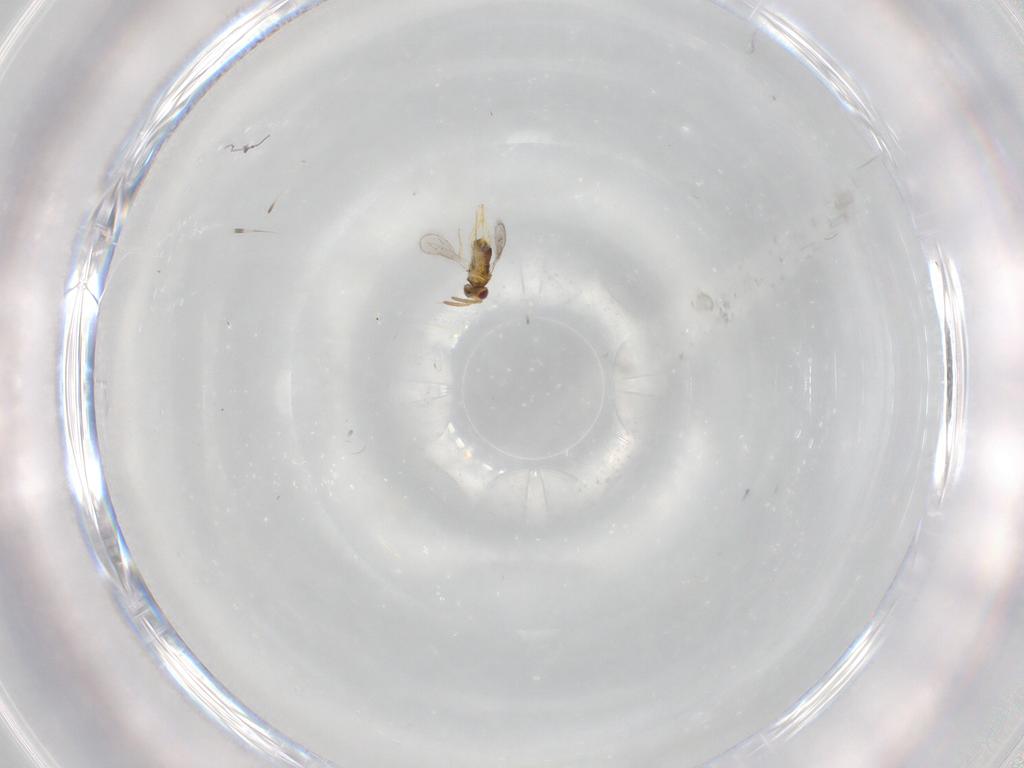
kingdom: Animalia
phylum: Arthropoda
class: Insecta
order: Hymenoptera
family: Aphelinidae
